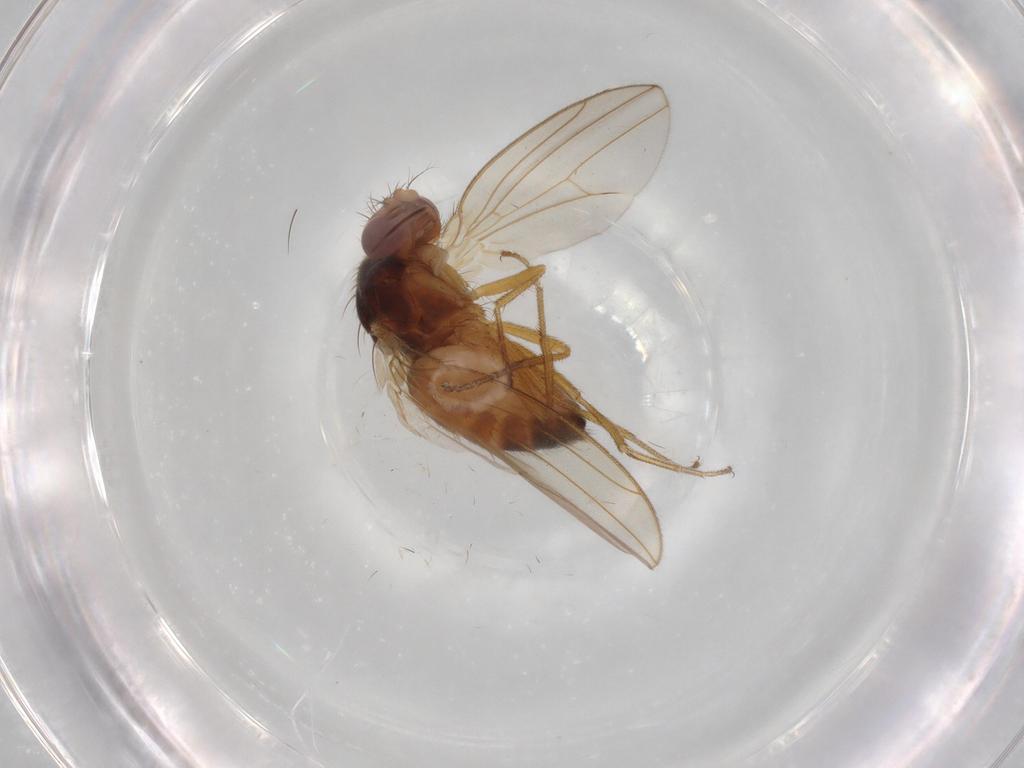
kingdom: Animalia
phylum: Arthropoda
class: Insecta
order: Diptera
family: Drosophilidae
